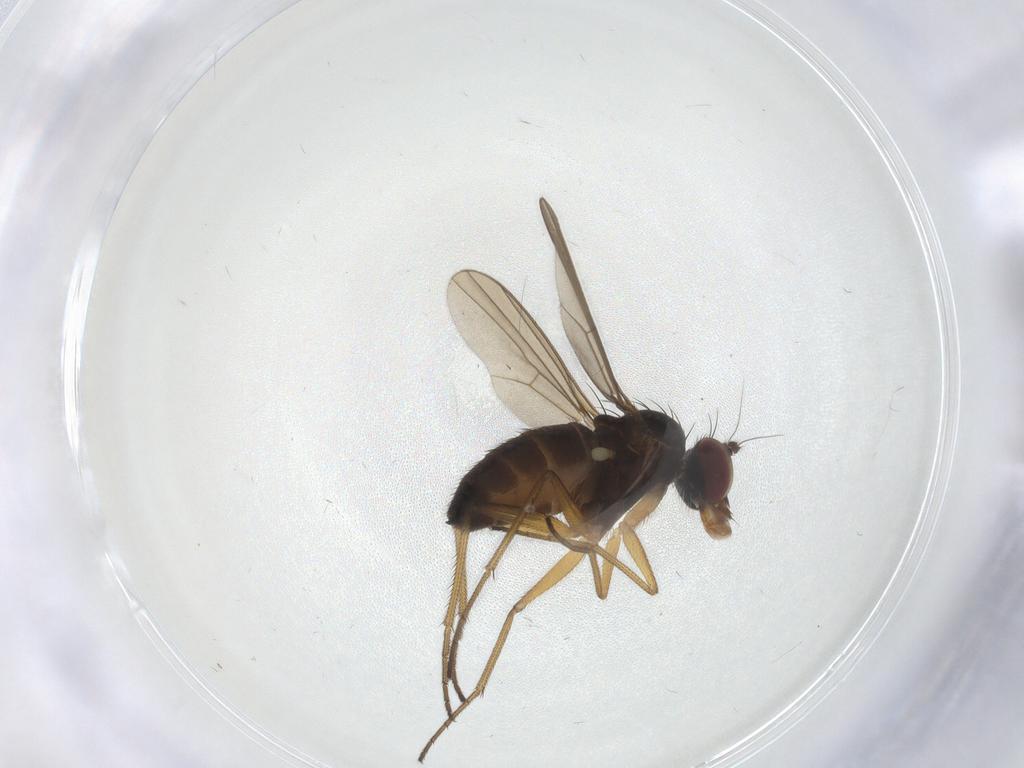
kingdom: Animalia
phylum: Arthropoda
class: Insecta
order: Diptera
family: Dolichopodidae
